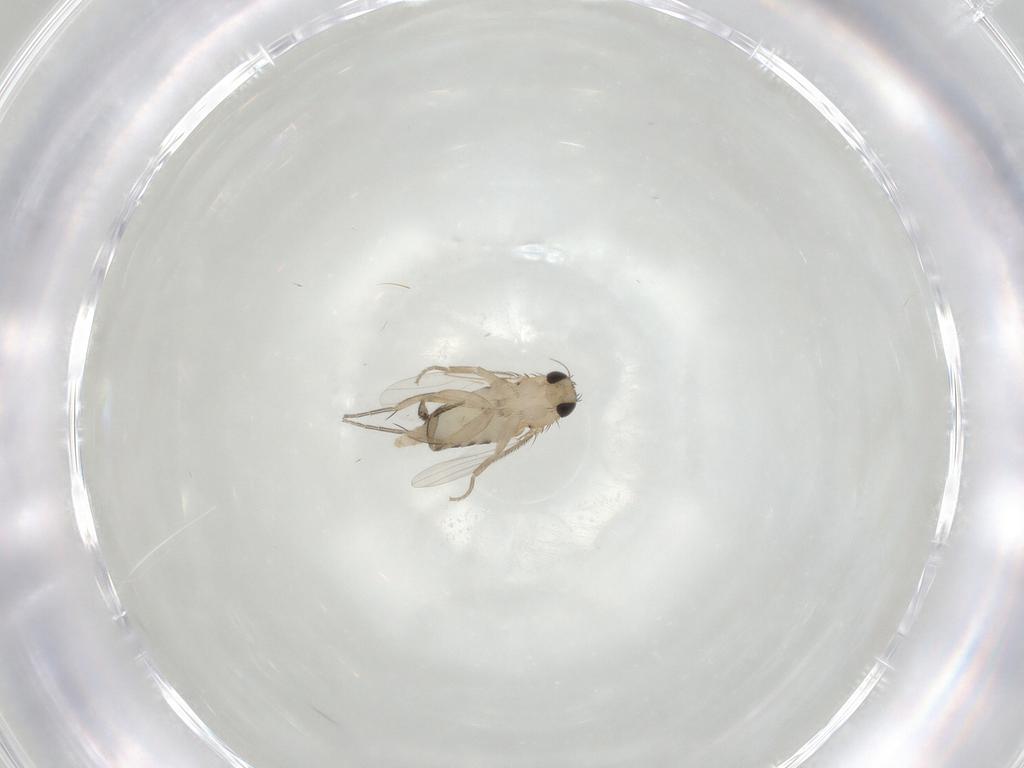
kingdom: Animalia
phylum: Arthropoda
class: Insecta
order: Diptera
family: Phoridae
